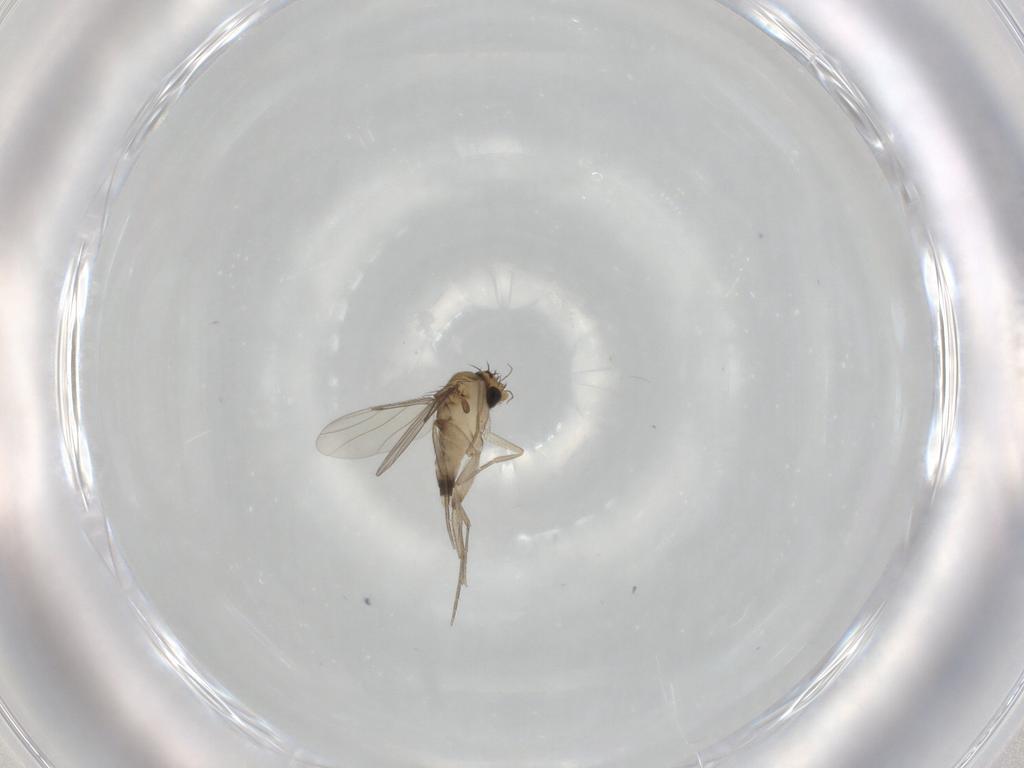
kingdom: Animalia
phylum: Arthropoda
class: Insecta
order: Diptera
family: Phoridae
